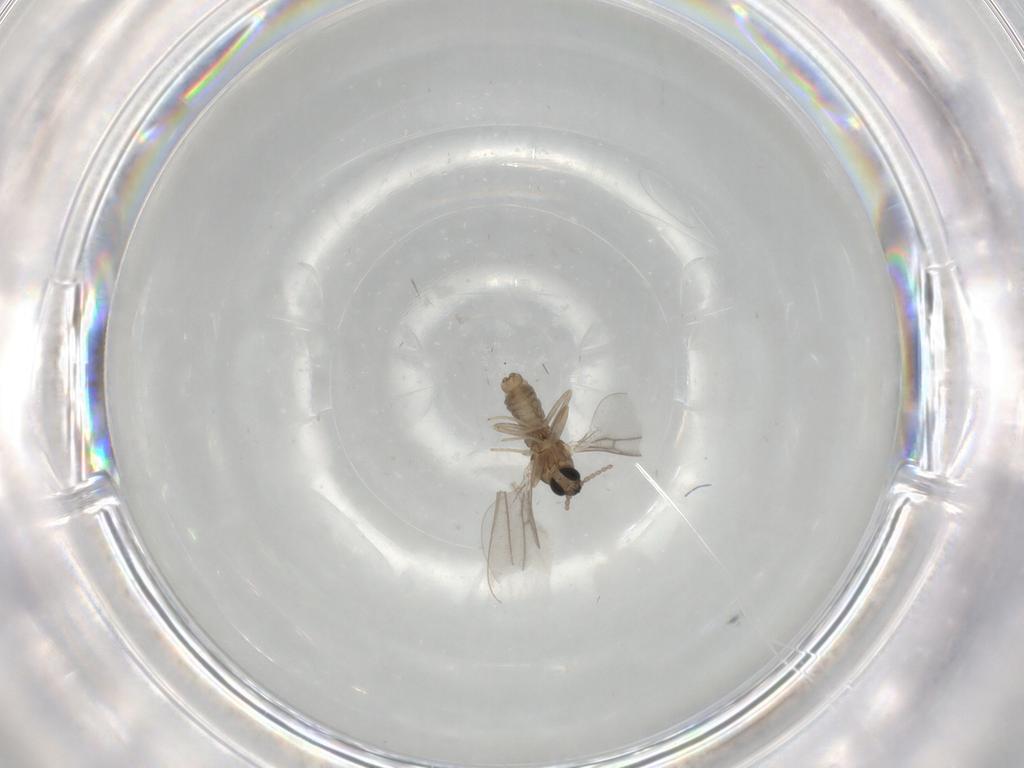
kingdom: Animalia
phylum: Arthropoda
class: Insecta
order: Diptera
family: Cecidomyiidae
